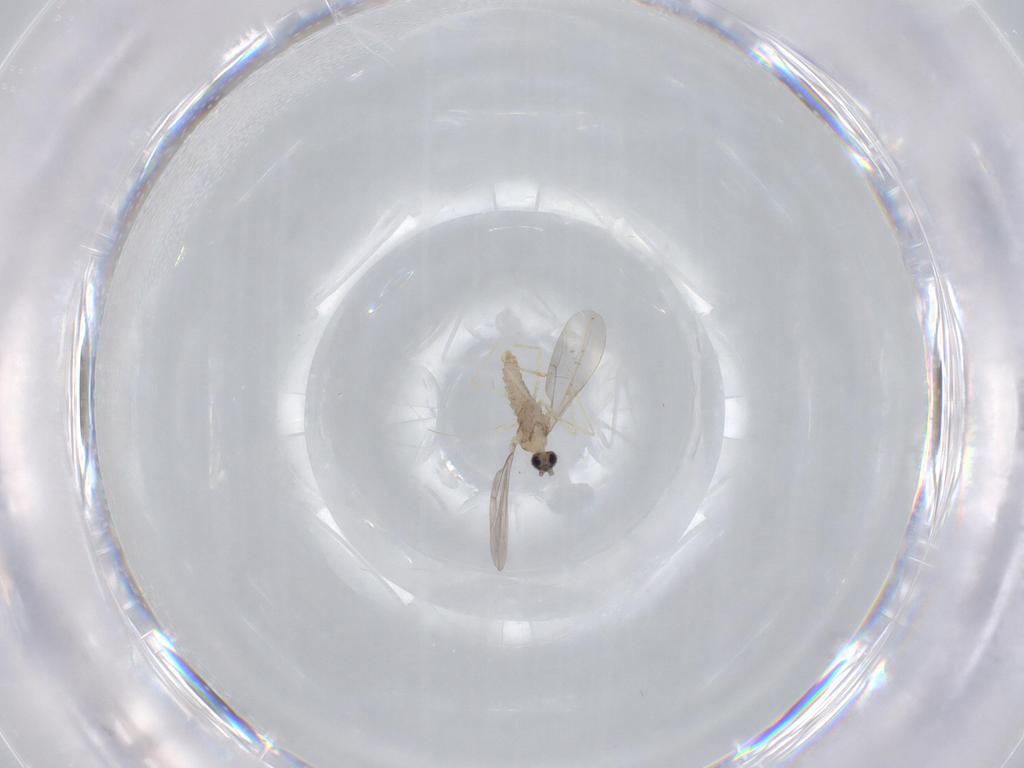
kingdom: Animalia
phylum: Arthropoda
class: Insecta
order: Diptera
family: Cecidomyiidae
